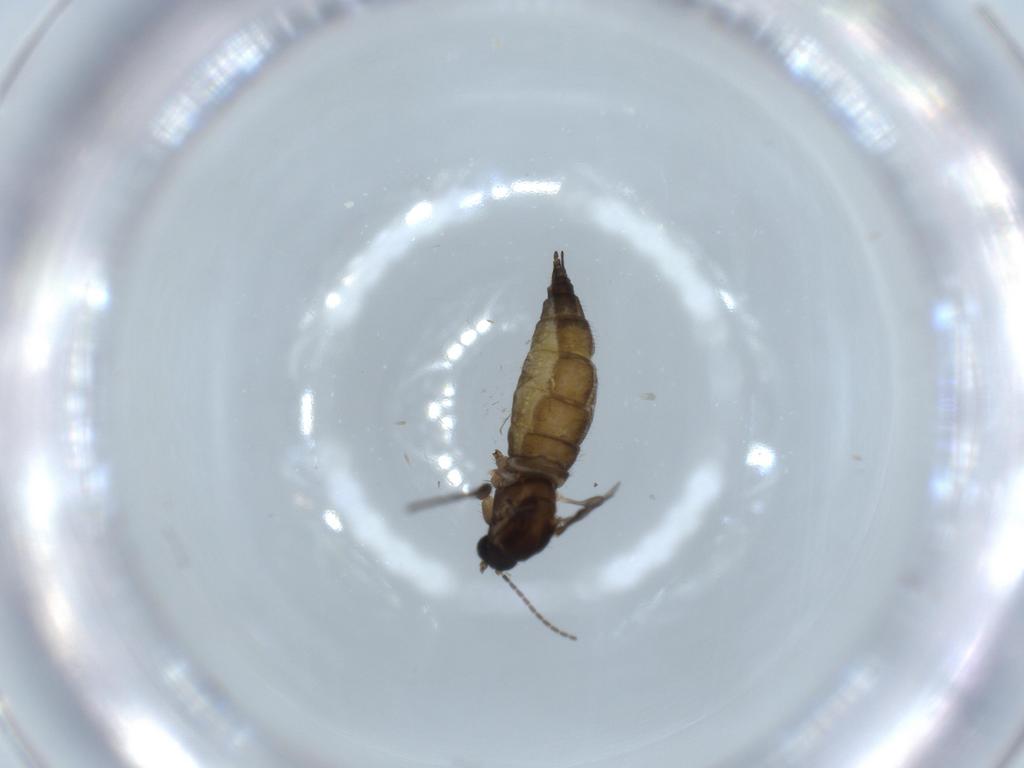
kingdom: Animalia
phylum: Arthropoda
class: Insecta
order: Diptera
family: Sciaridae
